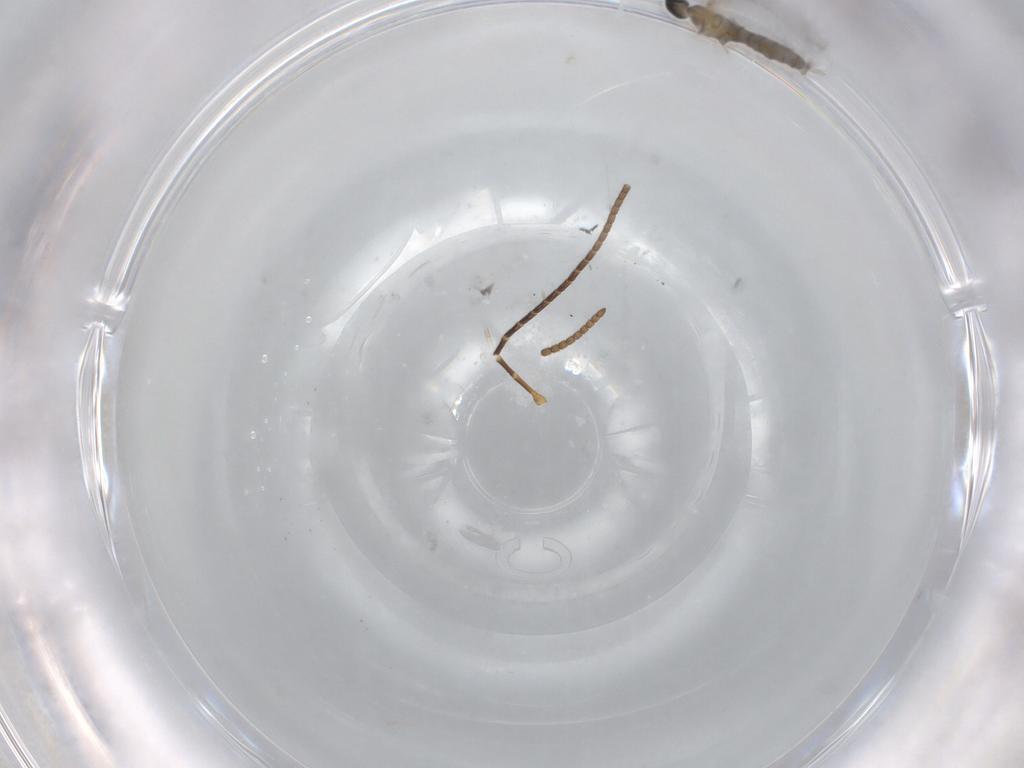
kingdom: Animalia
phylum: Arthropoda
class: Insecta
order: Diptera
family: Cecidomyiidae
